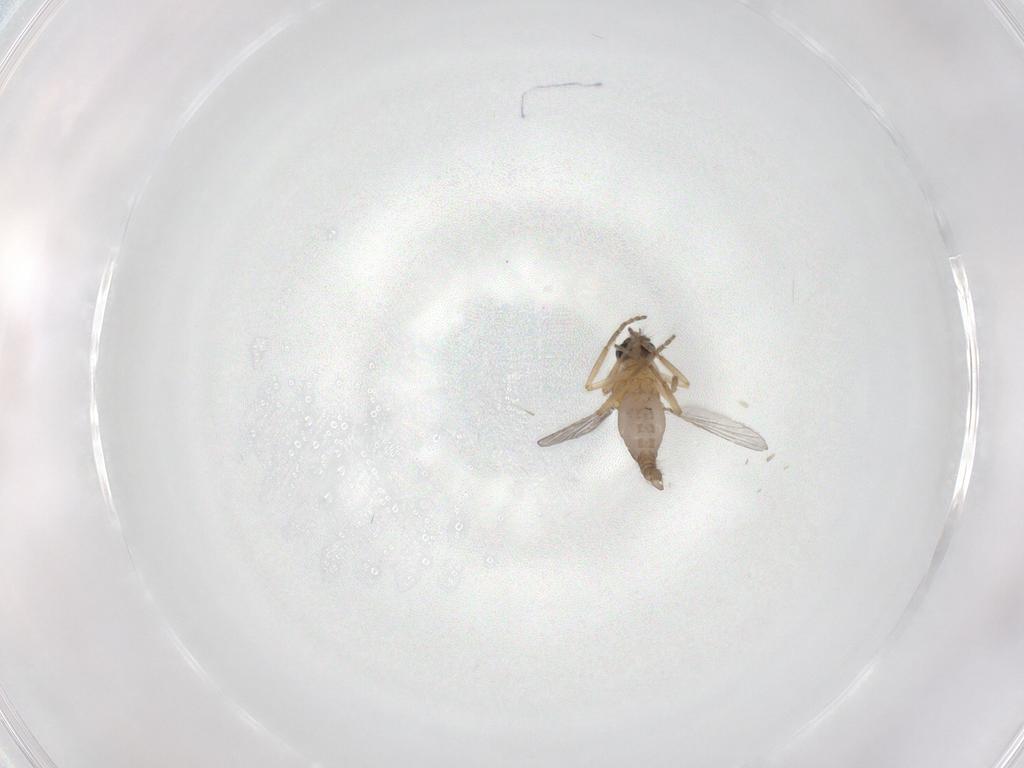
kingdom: Animalia
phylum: Arthropoda
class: Insecta
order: Diptera
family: Ceratopogonidae
